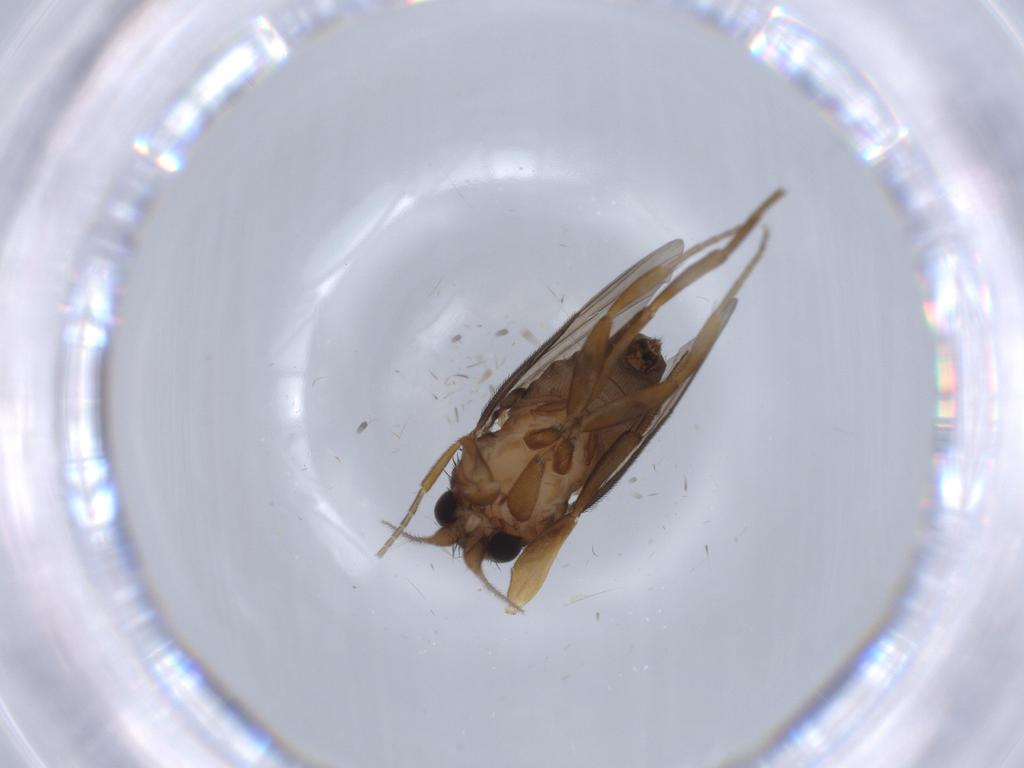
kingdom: Animalia
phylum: Arthropoda
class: Insecta
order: Diptera
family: Phoridae
